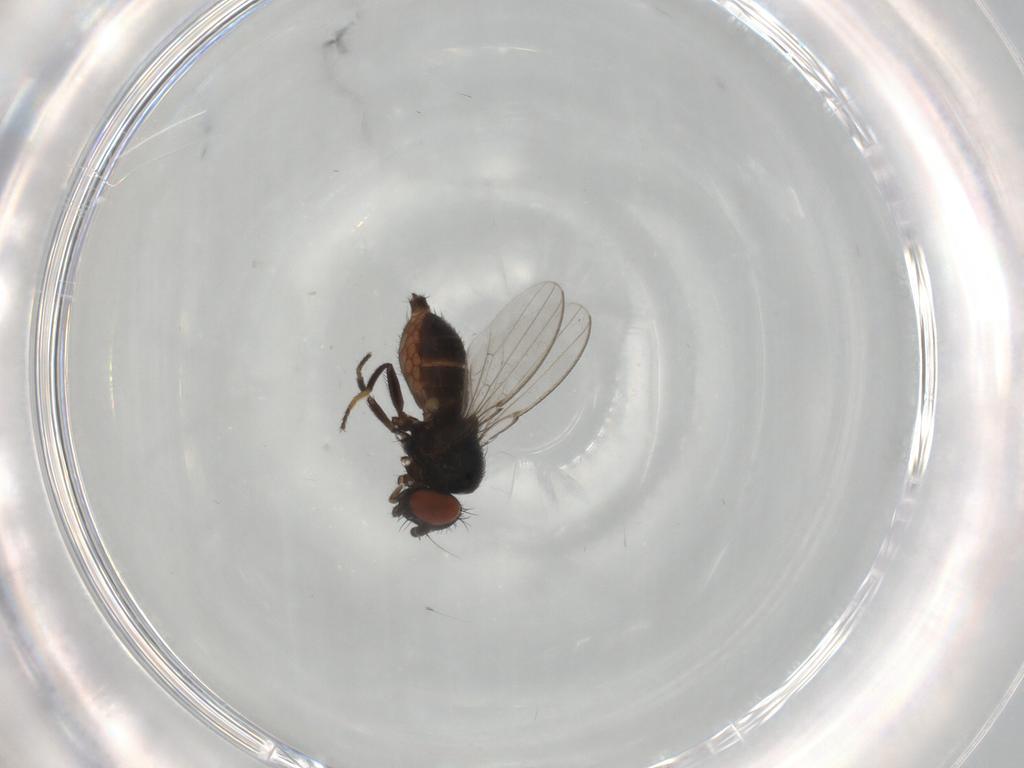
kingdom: Animalia
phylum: Arthropoda
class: Insecta
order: Diptera
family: Milichiidae
